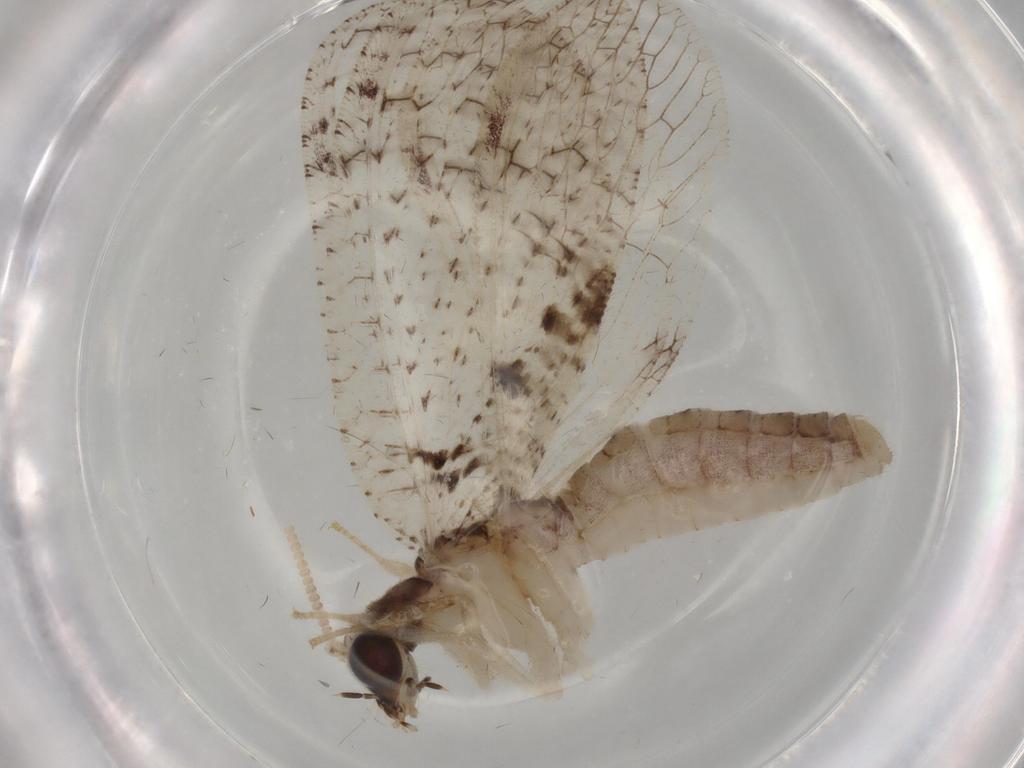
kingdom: Animalia
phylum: Arthropoda
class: Insecta
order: Neuroptera
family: Hemerobiidae
